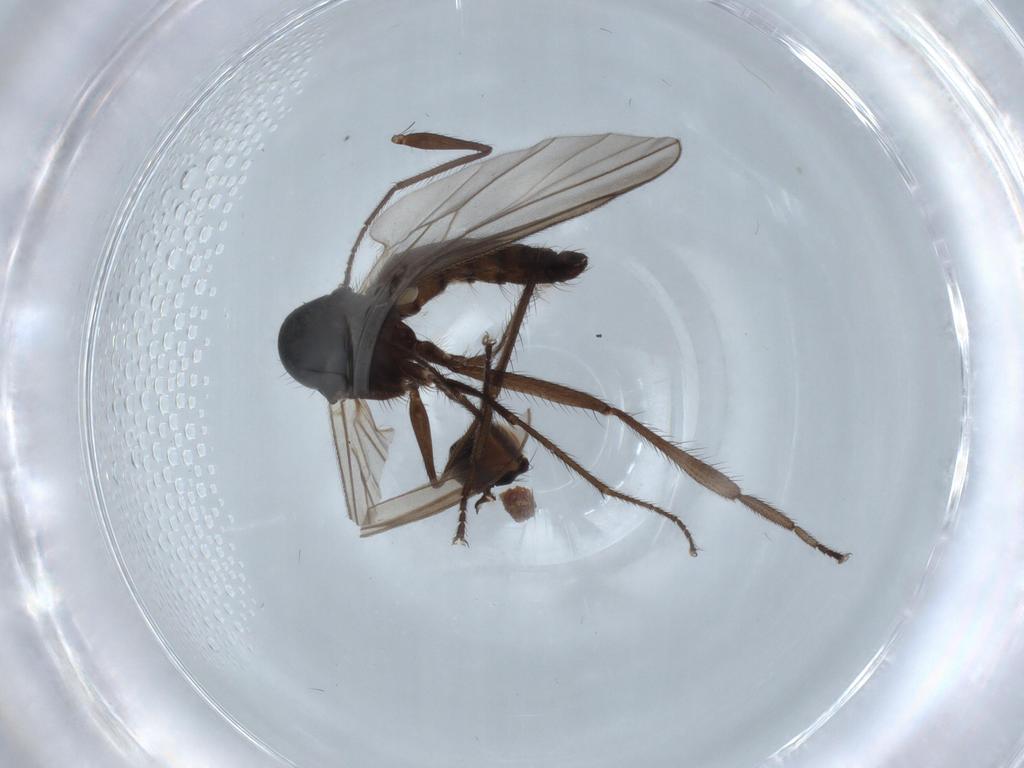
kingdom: Animalia
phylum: Arthropoda
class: Insecta
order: Diptera
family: Hybotidae
